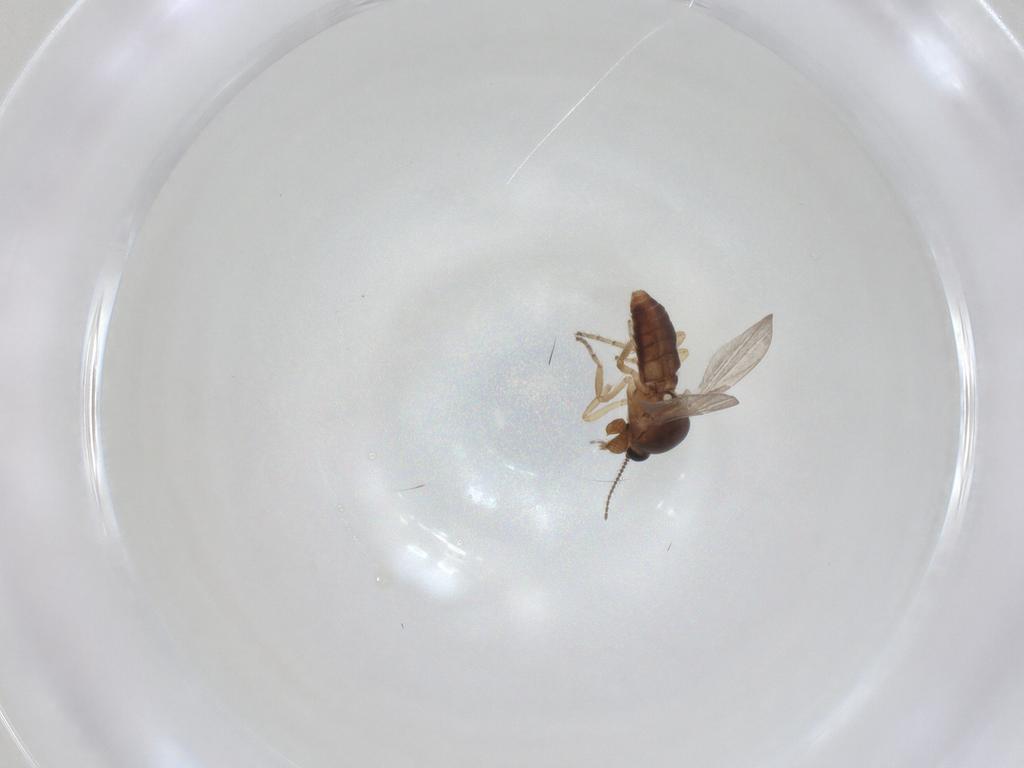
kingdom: Animalia
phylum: Arthropoda
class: Insecta
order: Diptera
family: Ceratopogonidae
